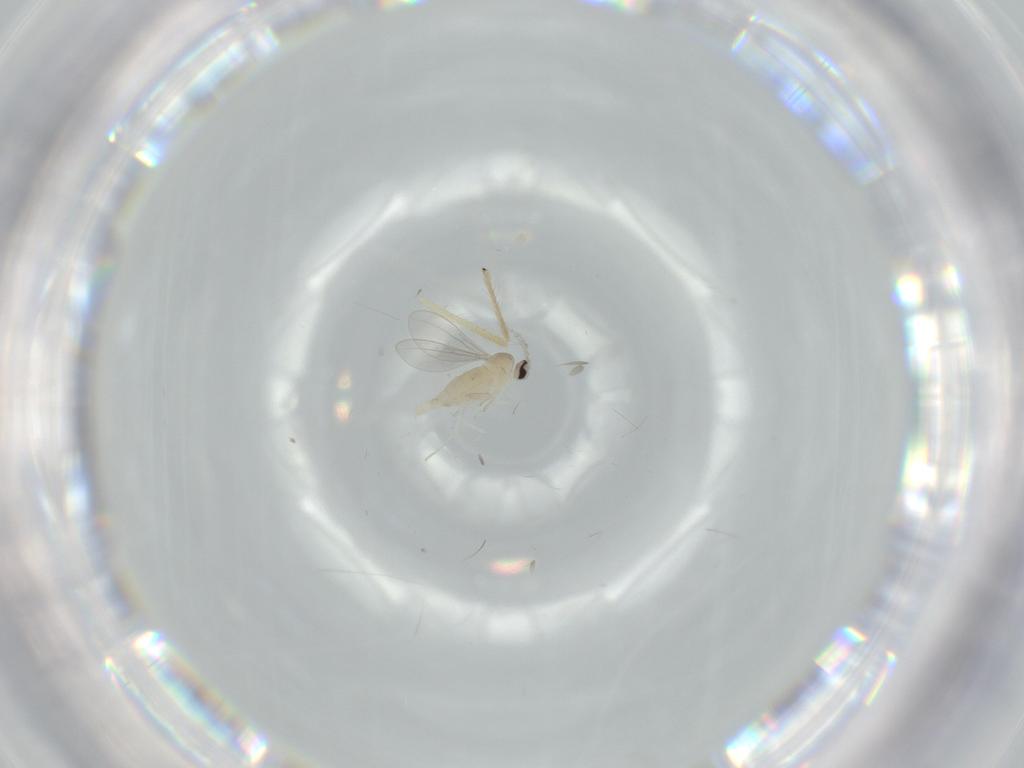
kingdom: Animalia
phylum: Arthropoda
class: Insecta
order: Diptera
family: Cecidomyiidae
